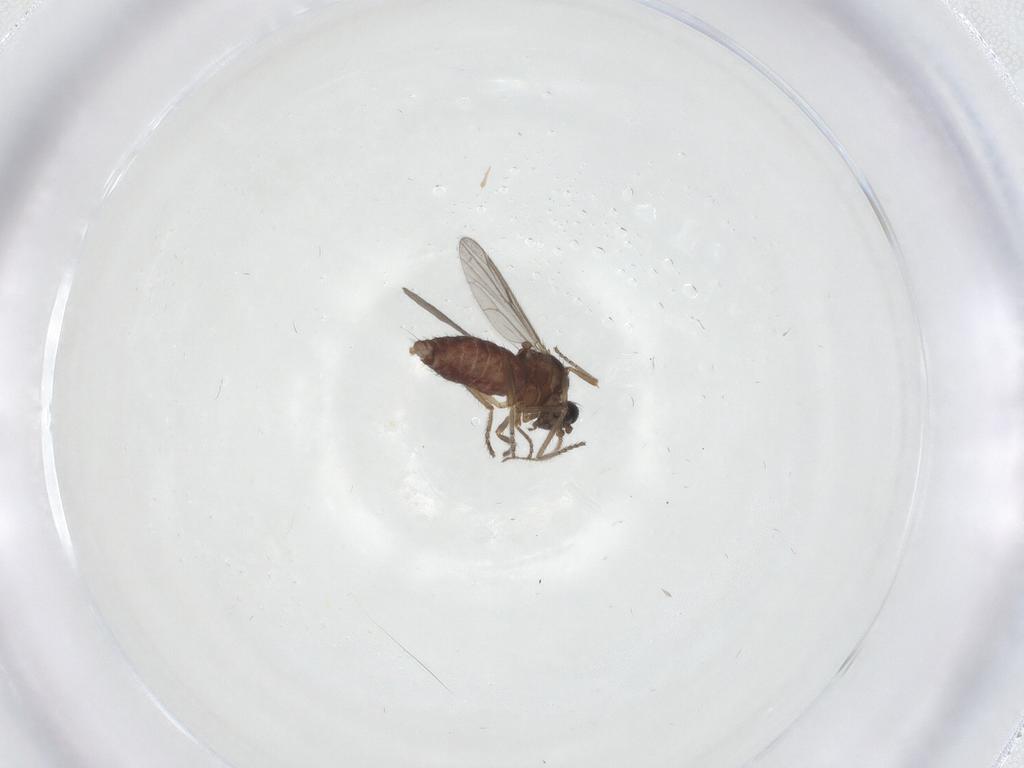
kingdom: Animalia
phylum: Arthropoda
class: Insecta
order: Diptera
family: Ceratopogonidae
